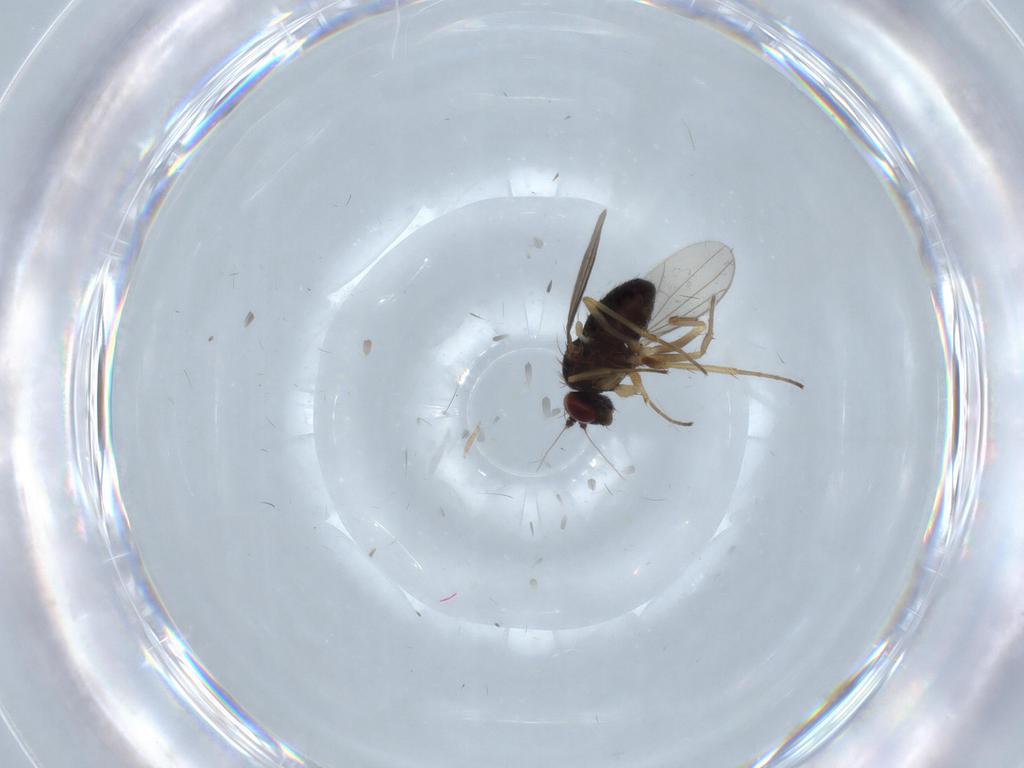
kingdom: Animalia
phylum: Arthropoda
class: Insecta
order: Diptera
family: Dolichopodidae
